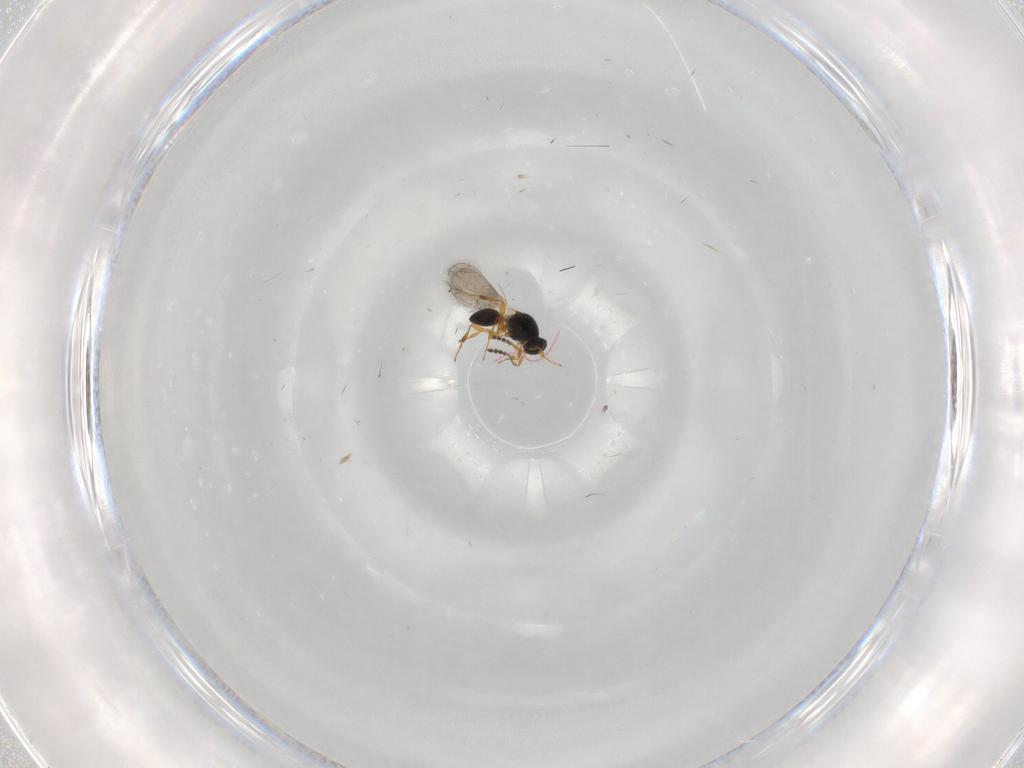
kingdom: Animalia
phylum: Arthropoda
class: Insecta
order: Hymenoptera
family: Platygastridae
